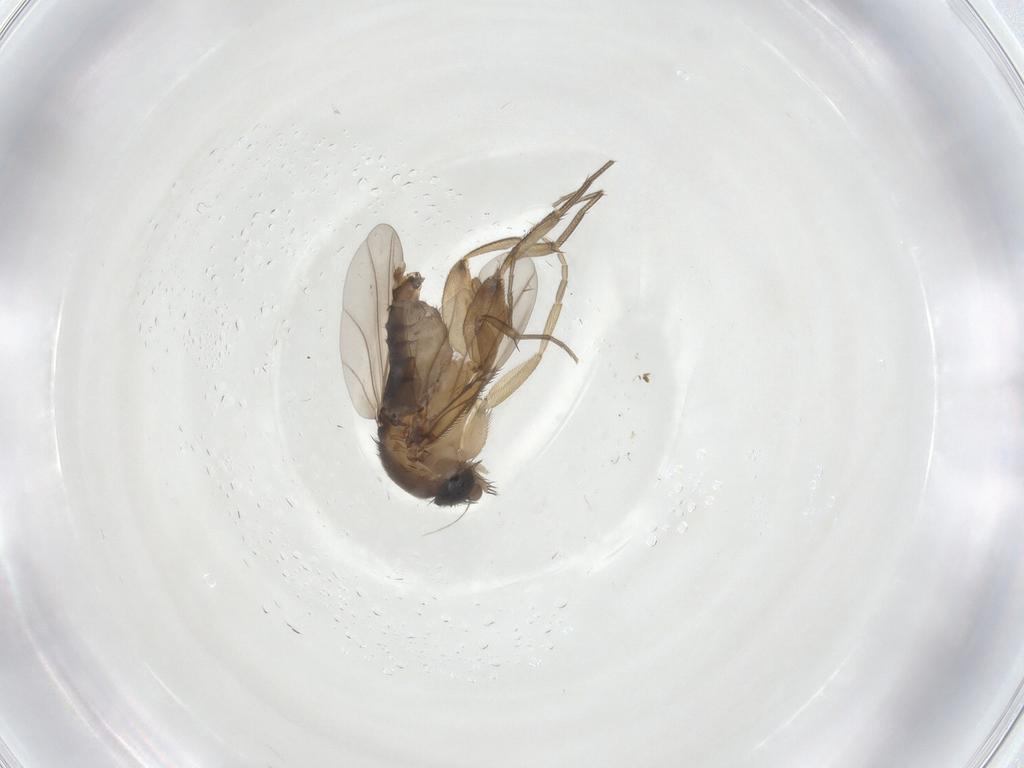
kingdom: Animalia
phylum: Arthropoda
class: Insecta
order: Diptera
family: Phoridae
